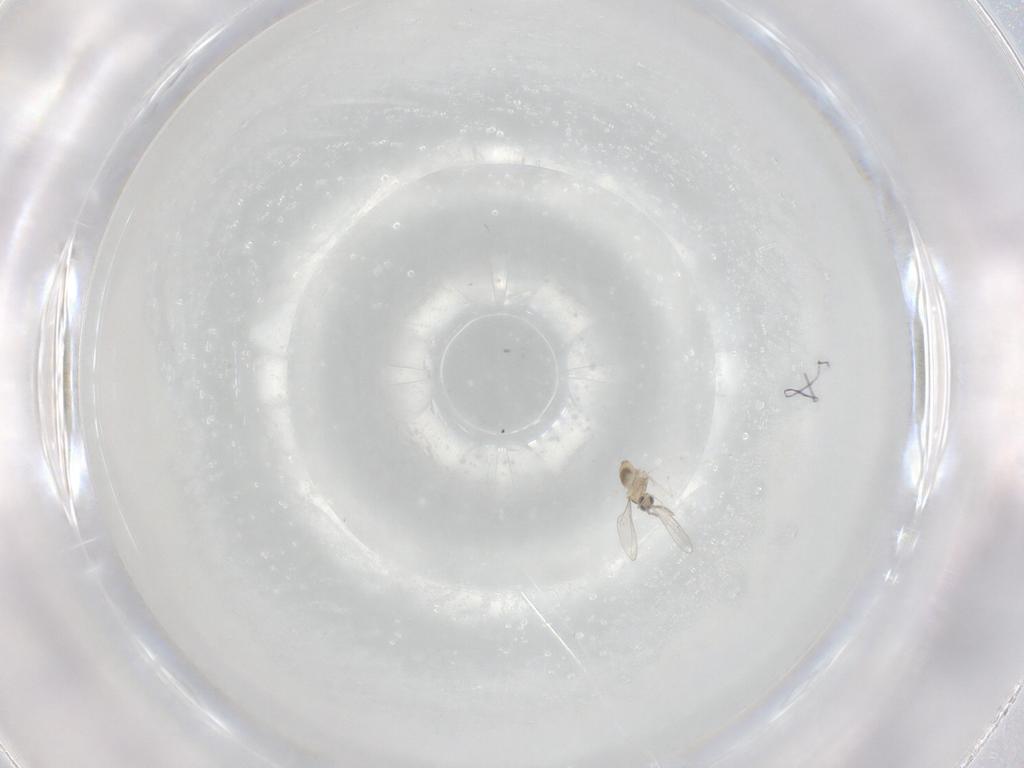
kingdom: Animalia
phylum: Arthropoda
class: Insecta
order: Diptera
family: Cecidomyiidae
